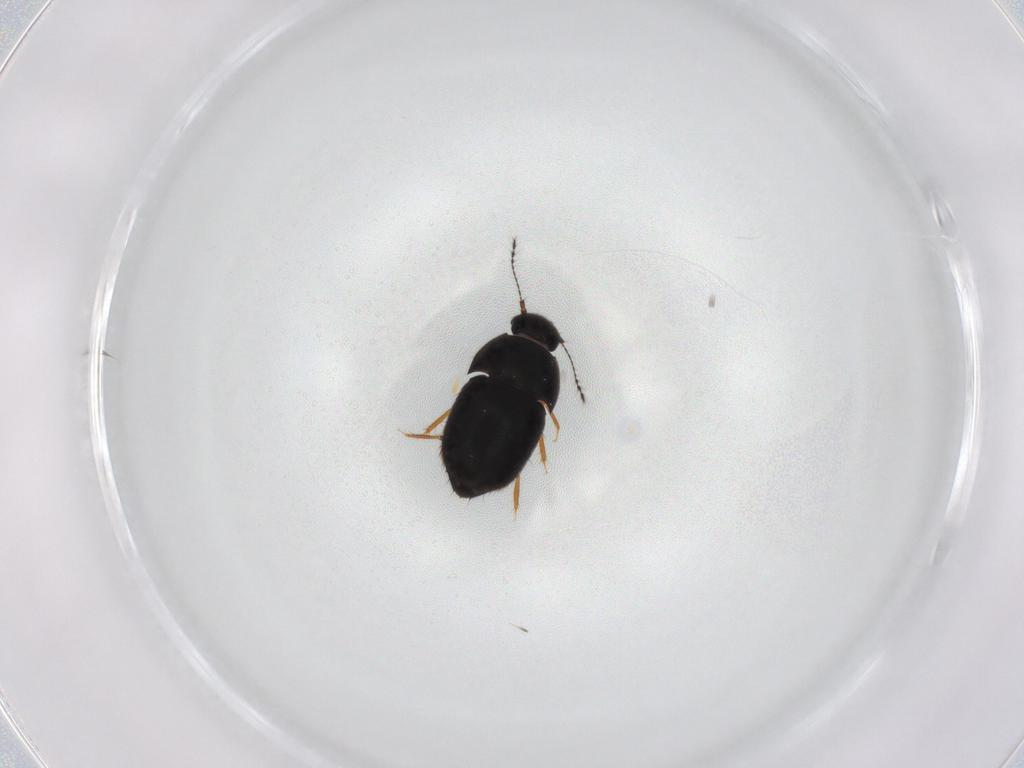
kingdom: Animalia
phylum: Arthropoda
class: Insecta
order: Coleoptera
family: Ptiliidae
